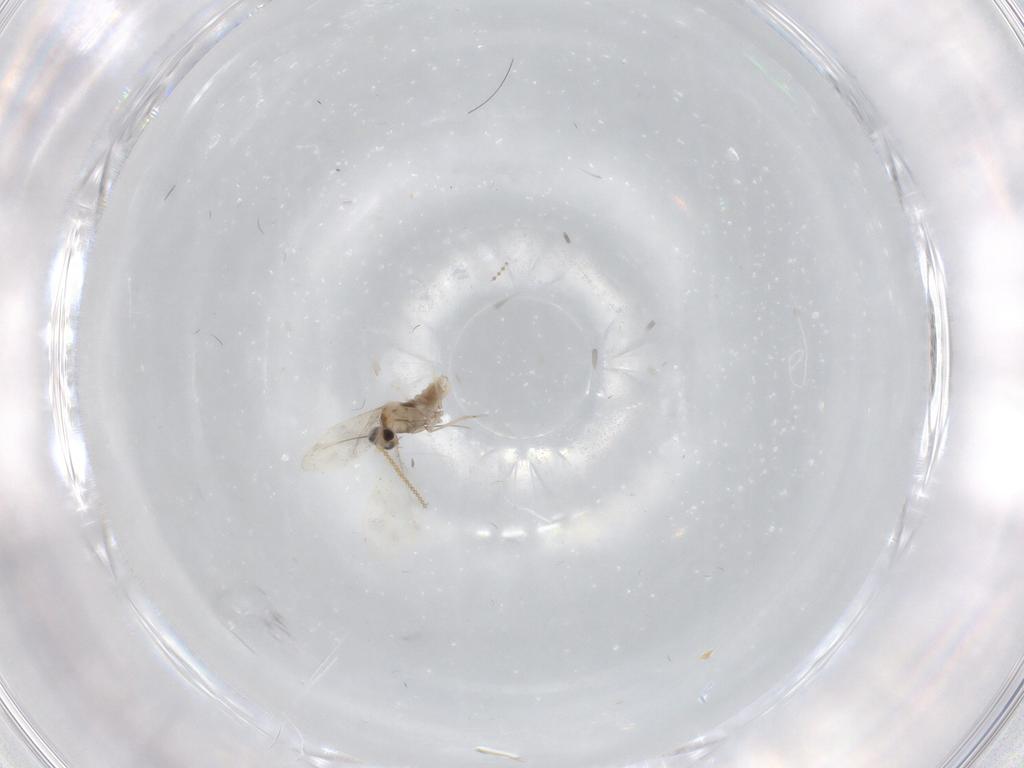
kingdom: Animalia
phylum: Arthropoda
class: Insecta
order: Diptera
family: Cecidomyiidae
